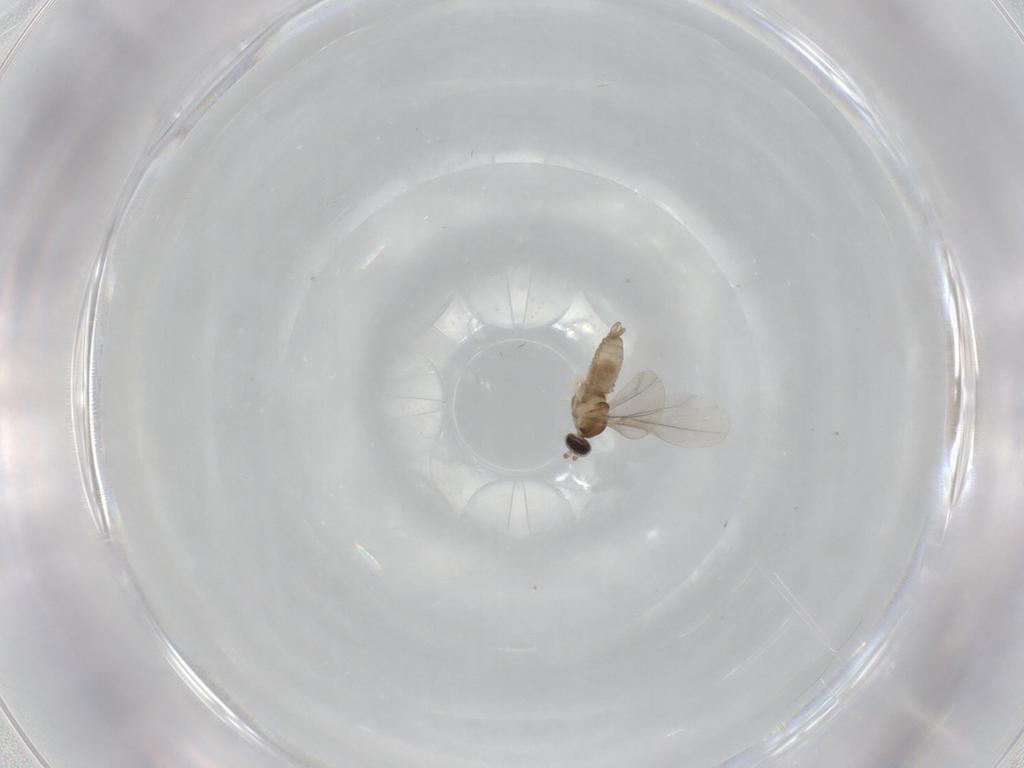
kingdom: Animalia
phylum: Arthropoda
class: Insecta
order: Diptera
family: Cecidomyiidae
